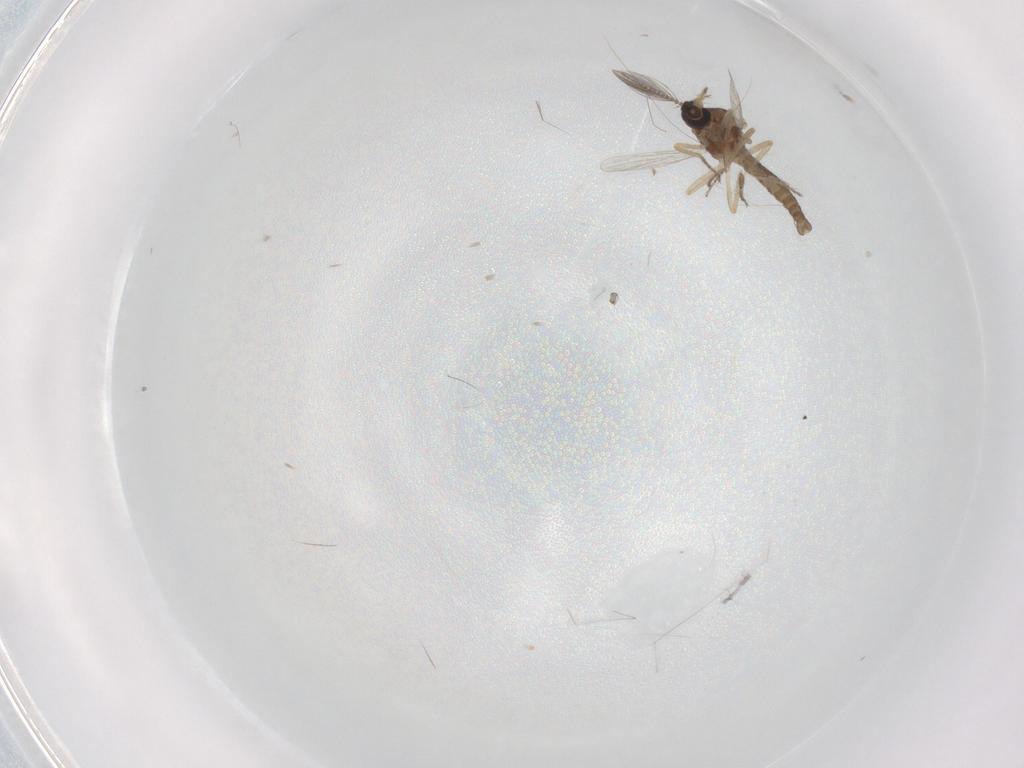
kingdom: Animalia
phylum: Arthropoda
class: Insecta
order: Diptera
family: Ceratopogonidae
